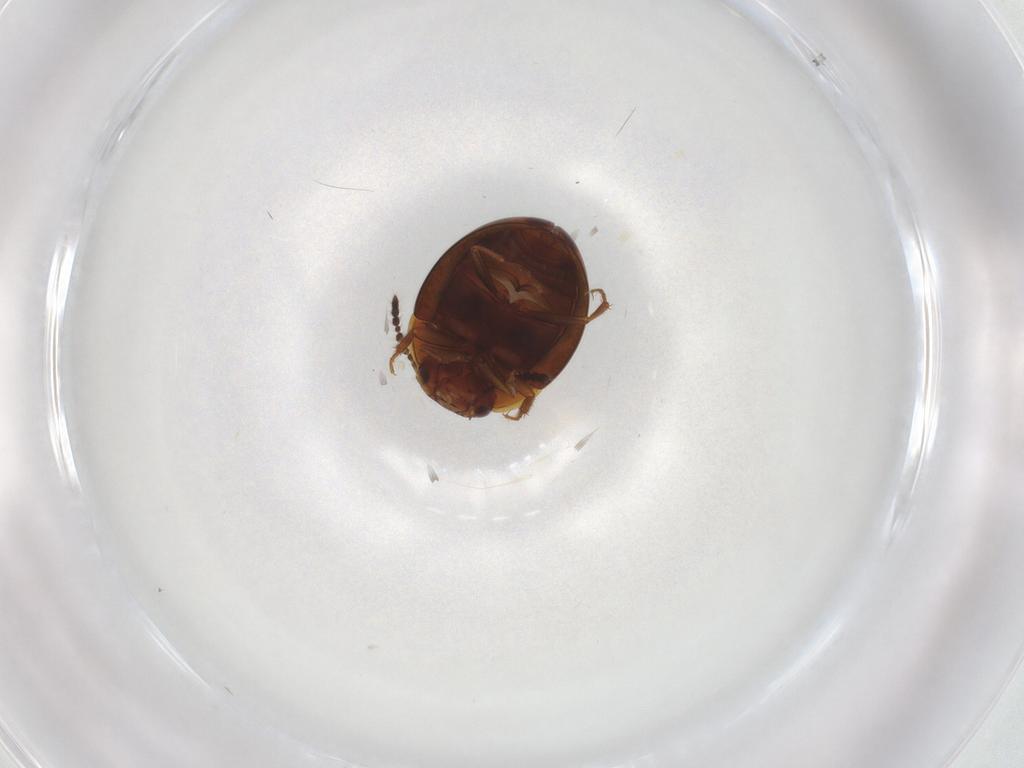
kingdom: Animalia
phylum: Arthropoda
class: Insecta
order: Coleoptera
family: Leiodidae
